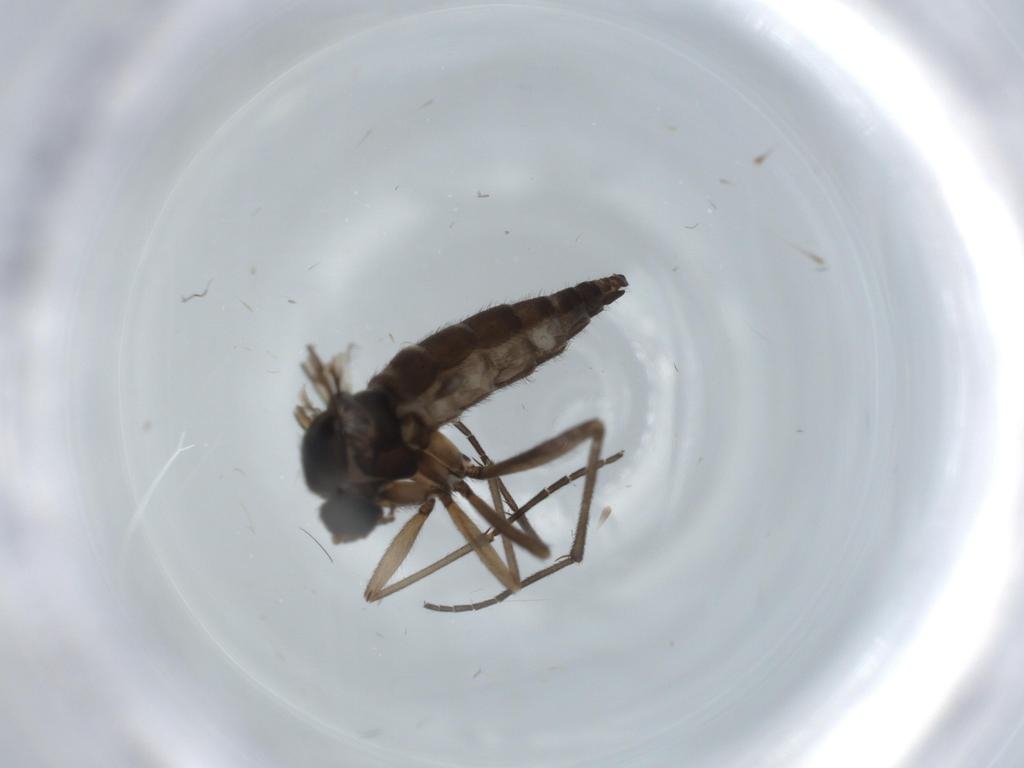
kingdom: Animalia
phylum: Arthropoda
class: Insecta
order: Diptera
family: Sciaridae
